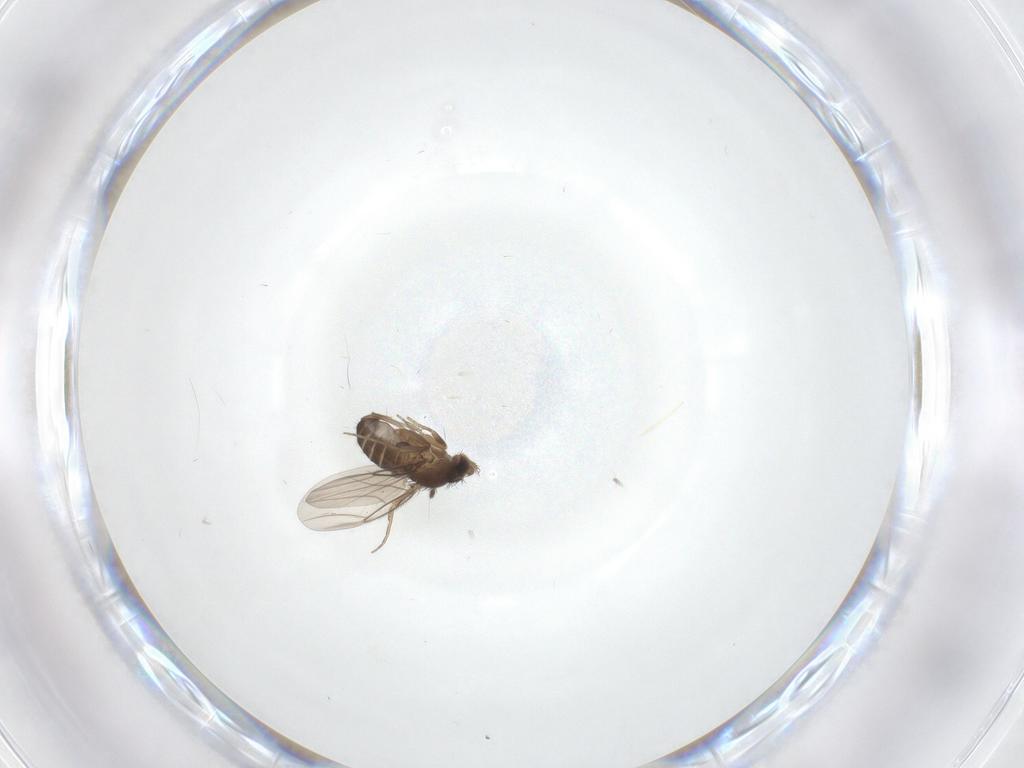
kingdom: Animalia
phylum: Arthropoda
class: Insecta
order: Diptera
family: Phoridae
